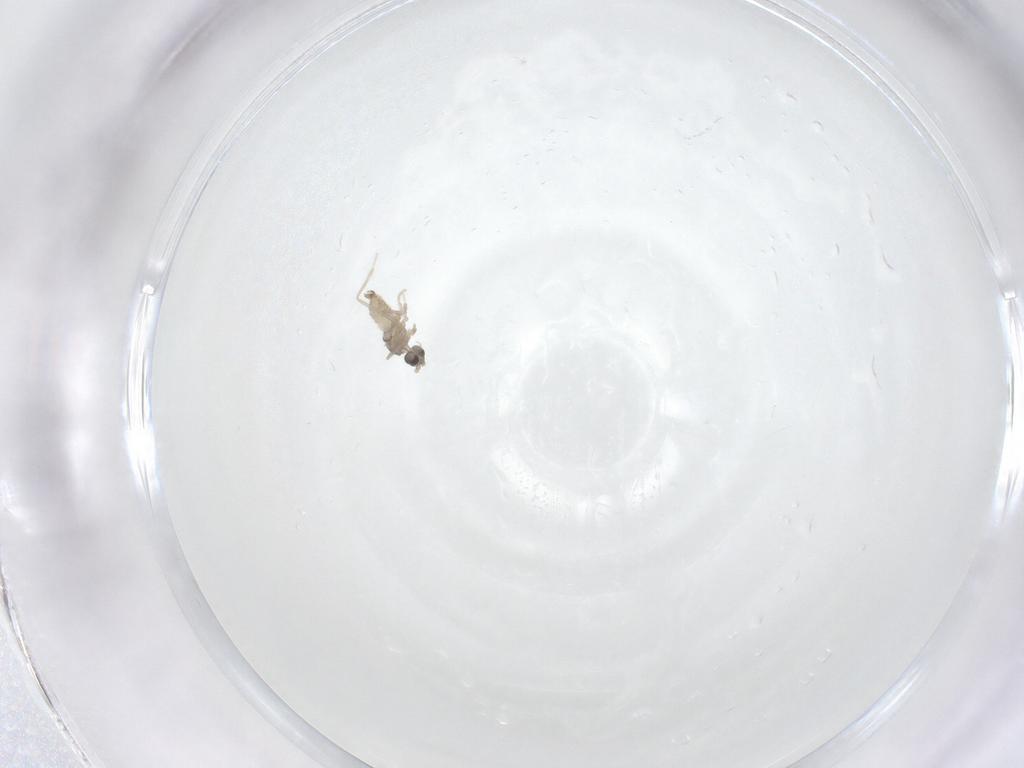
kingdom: Animalia
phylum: Arthropoda
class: Insecta
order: Diptera
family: Cecidomyiidae
